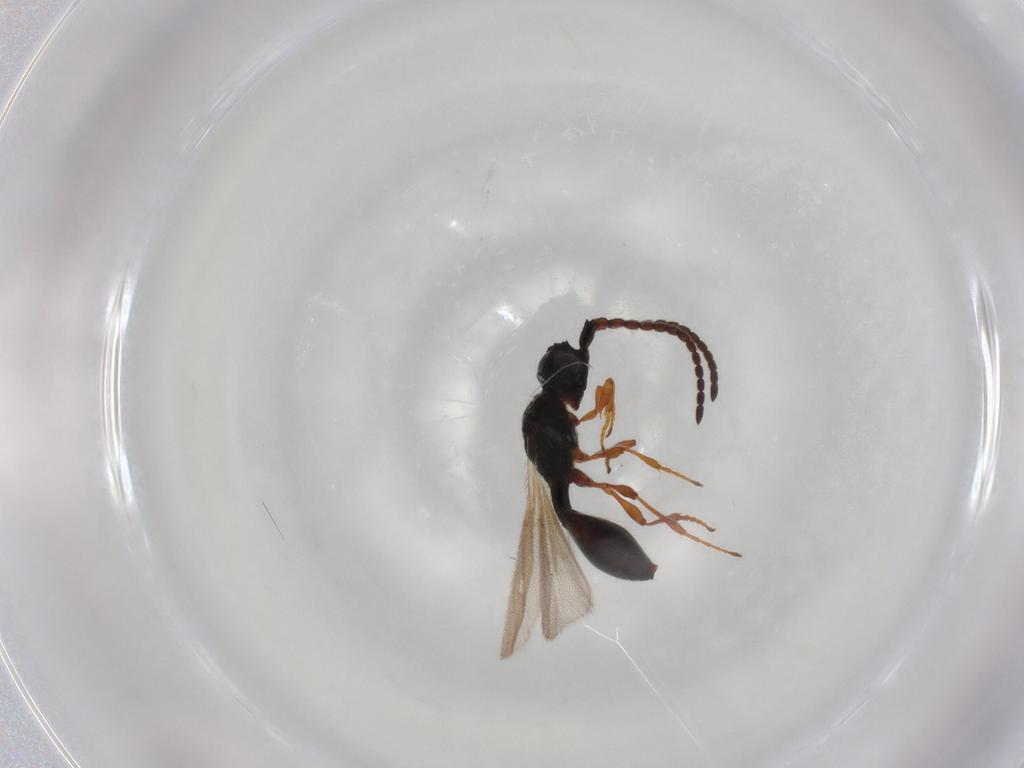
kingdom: Animalia
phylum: Arthropoda
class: Insecta
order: Hymenoptera
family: Diapriidae
